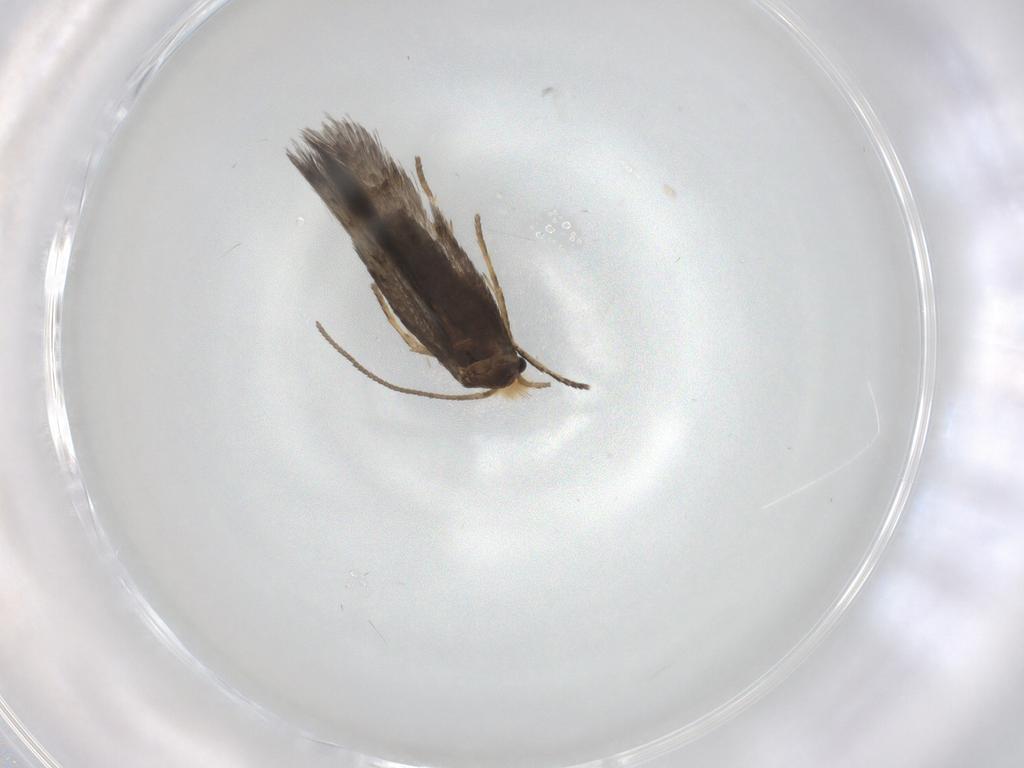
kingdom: Animalia
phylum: Arthropoda
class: Insecta
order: Lepidoptera
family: Nepticulidae
